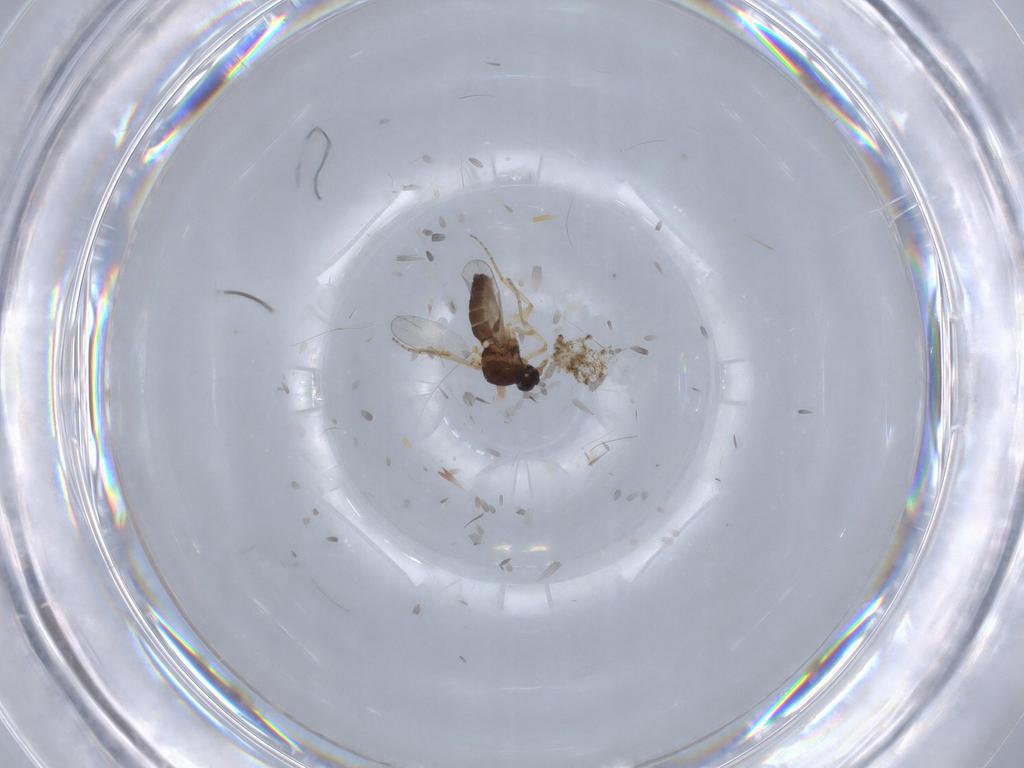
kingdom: Animalia
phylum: Arthropoda
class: Insecta
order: Diptera
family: Ceratopogonidae
